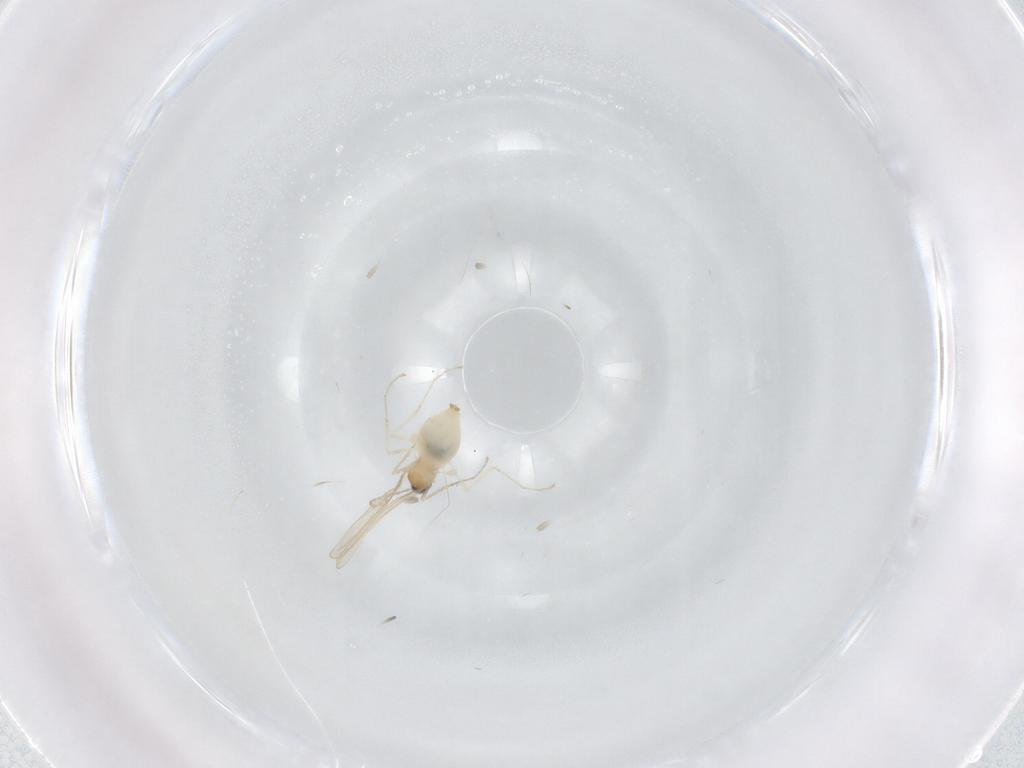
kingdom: Animalia
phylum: Arthropoda
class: Insecta
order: Diptera
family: Cecidomyiidae
